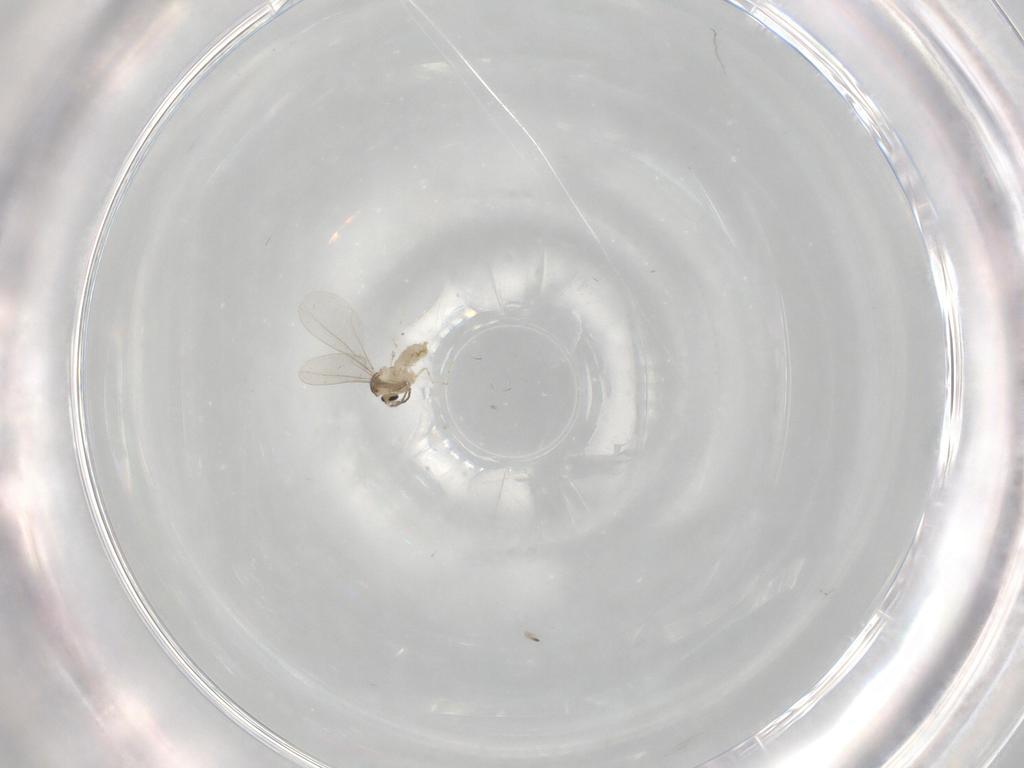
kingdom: Animalia
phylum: Arthropoda
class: Insecta
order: Diptera
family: Cecidomyiidae
